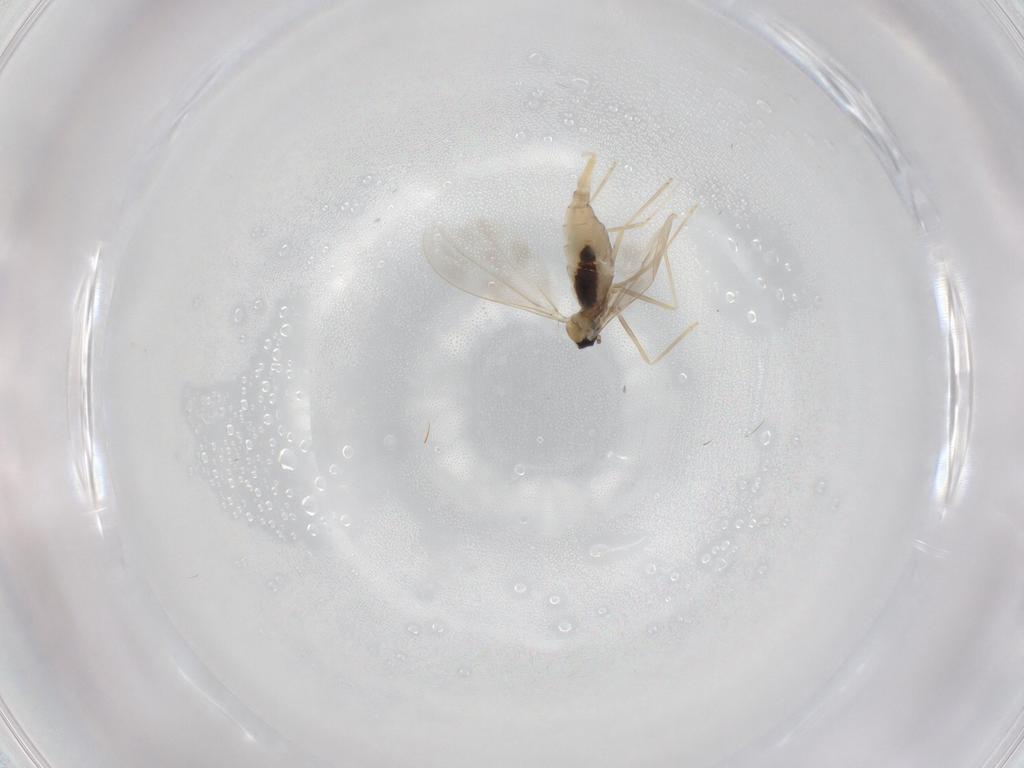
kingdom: Animalia
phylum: Arthropoda
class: Insecta
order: Diptera
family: Cecidomyiidae
